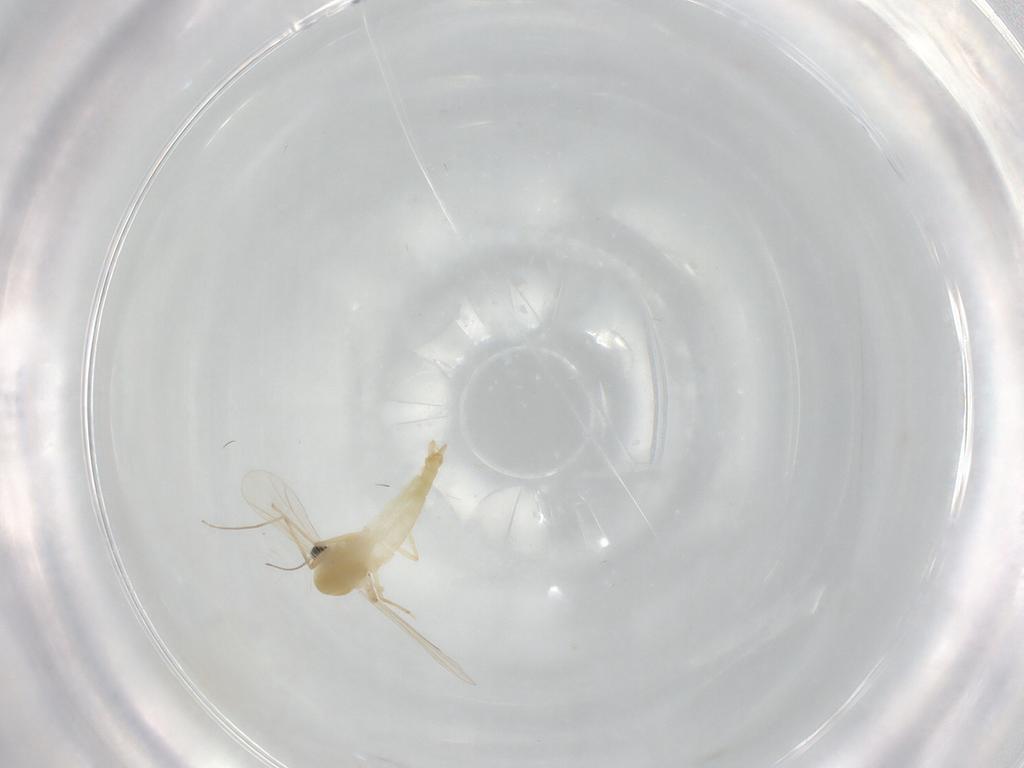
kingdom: Animalia
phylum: Arthropoda
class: Insecta
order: Diptera
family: Chironomidae
